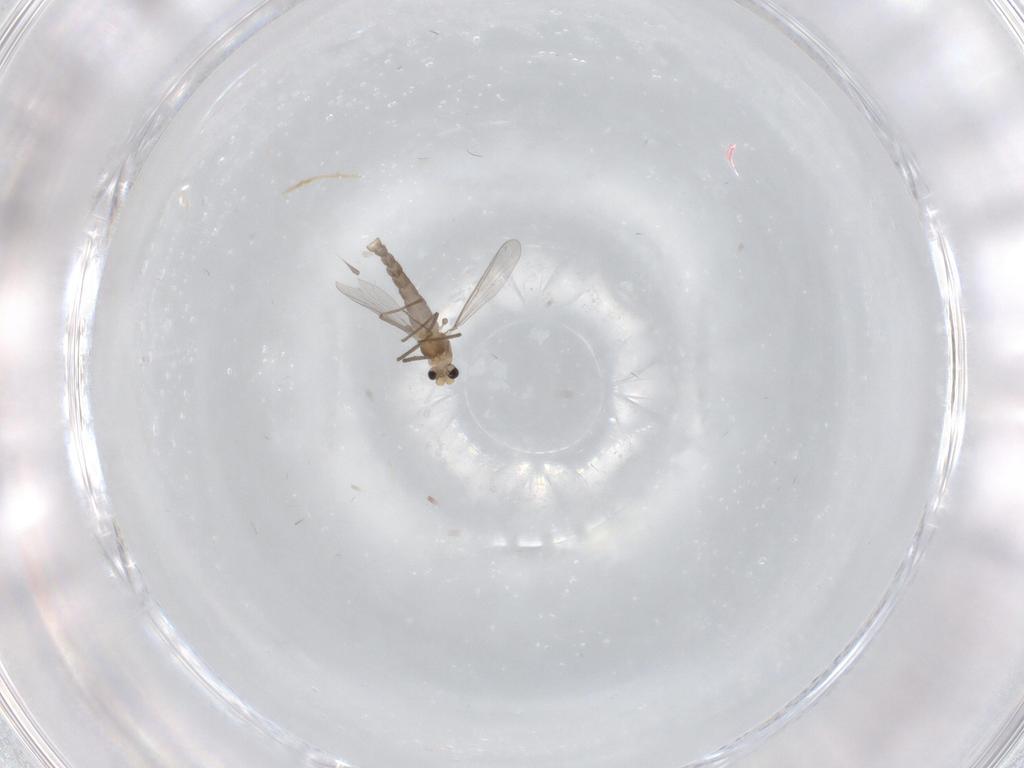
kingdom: Animalia
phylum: Arthropoda
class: Insecta
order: Diptera
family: Chironomidae
